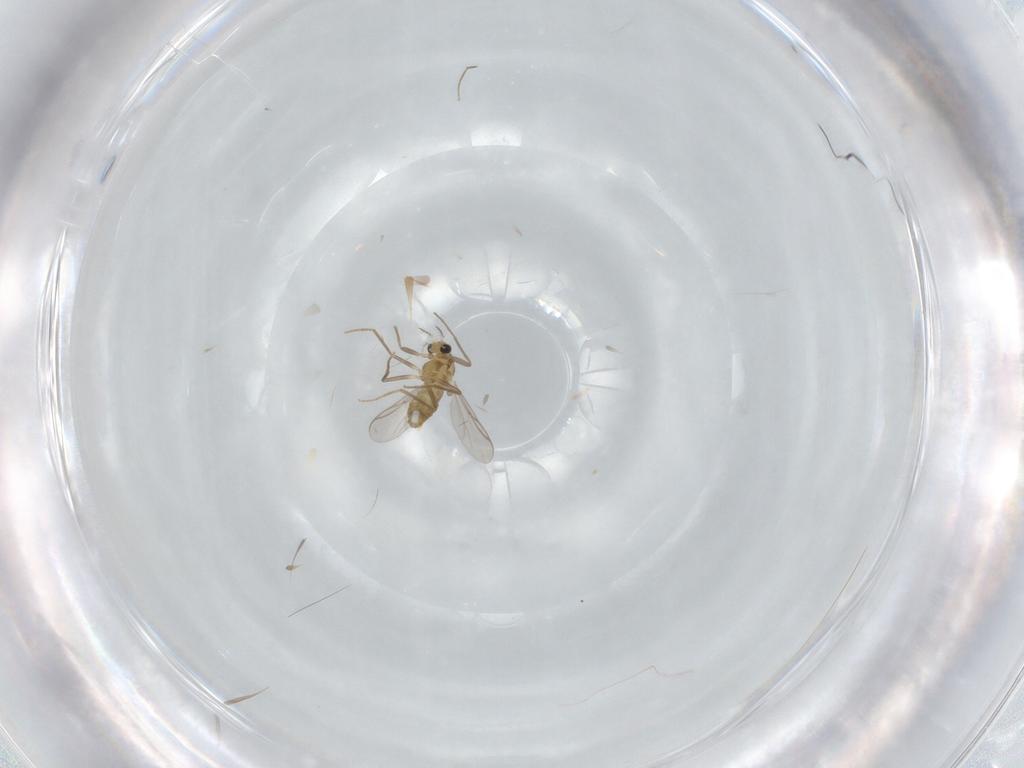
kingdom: Animalia
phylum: Arthropoda
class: Insecta
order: Diptera
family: Chironomidae
